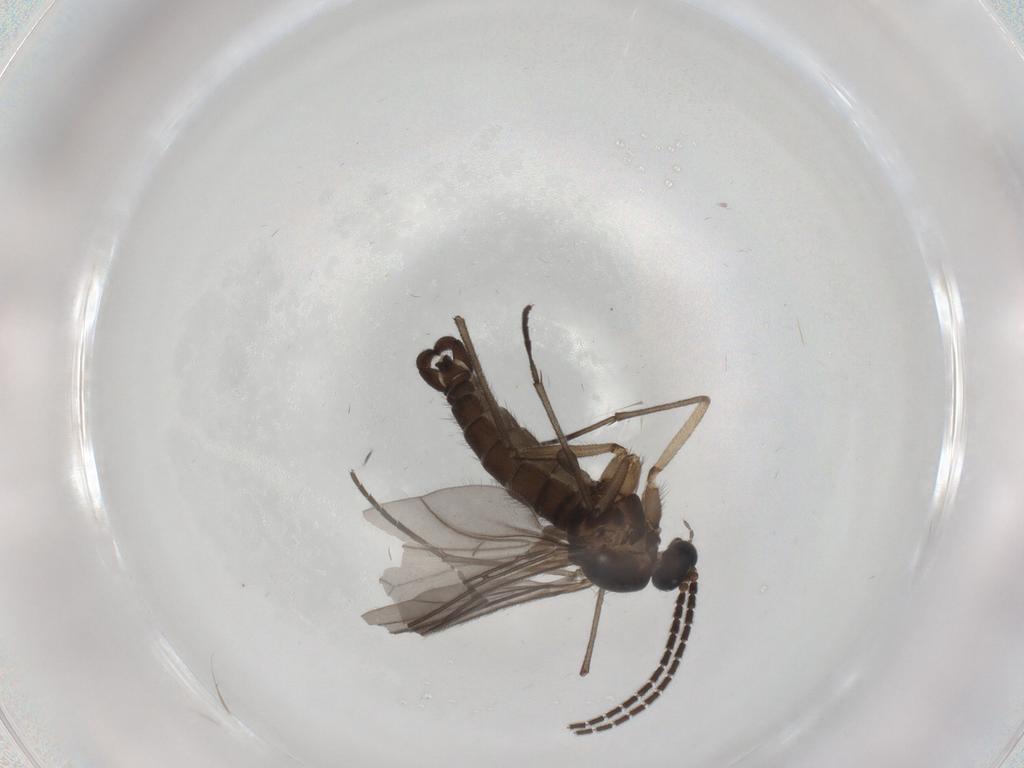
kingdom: Animalia
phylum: Arthropoda
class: Insecta
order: Diptera
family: Sciaridae
